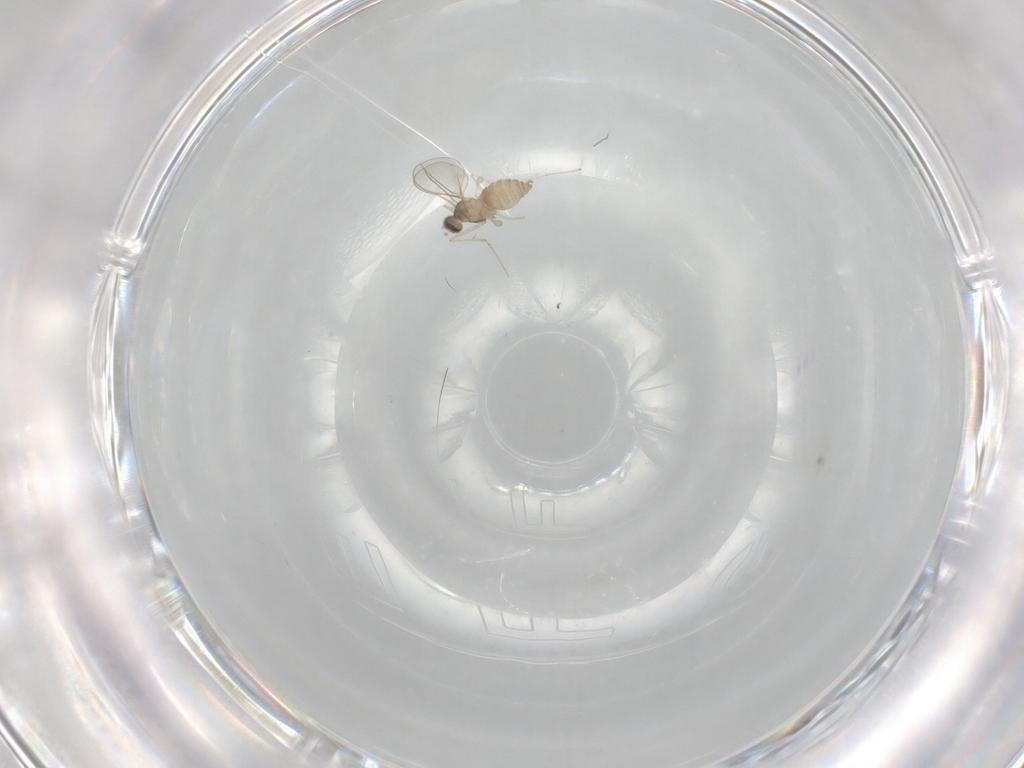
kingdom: Animalia
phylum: Arthropoda
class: Insecta
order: Diptera
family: Cecidomyiidae
